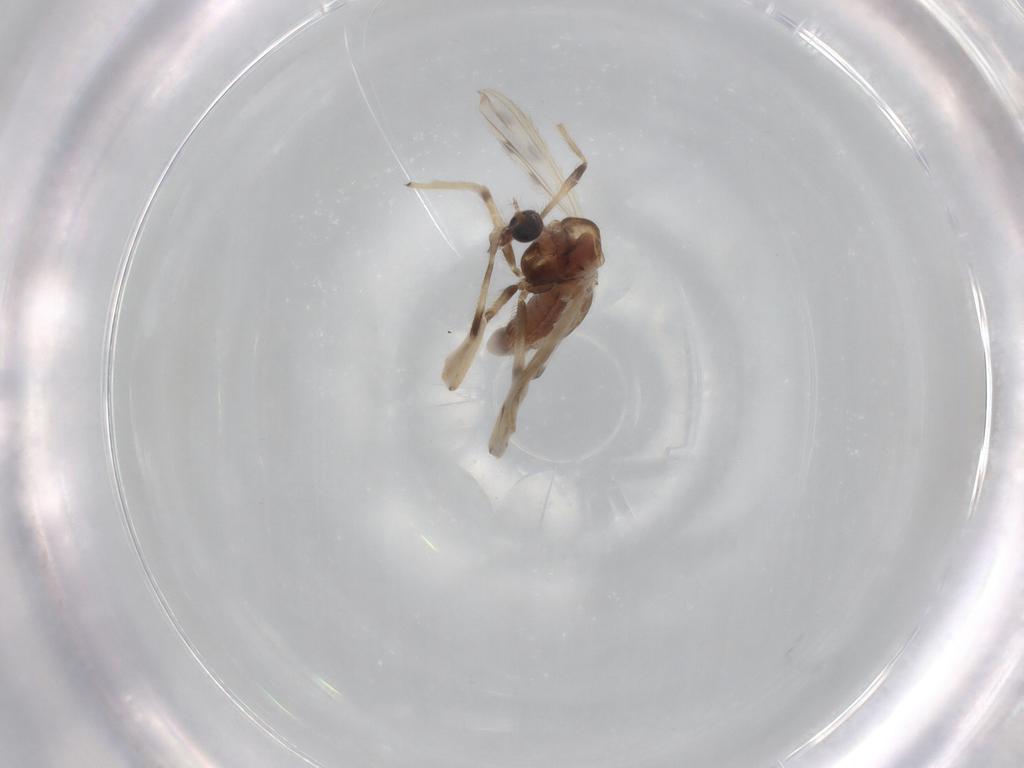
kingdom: Animalia
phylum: Arthropoda
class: Insecta
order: Diptera
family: Chironomidae
